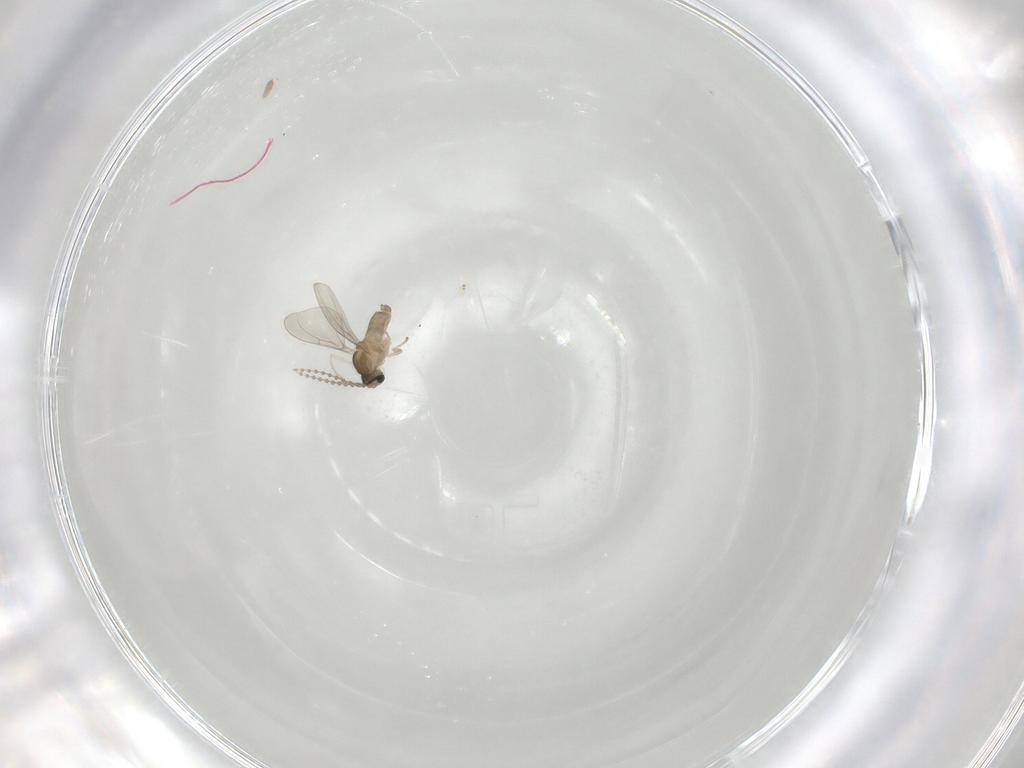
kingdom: Animalia
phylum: Arthropoda
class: Insecta
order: Diptera
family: Cecidomyiidae
